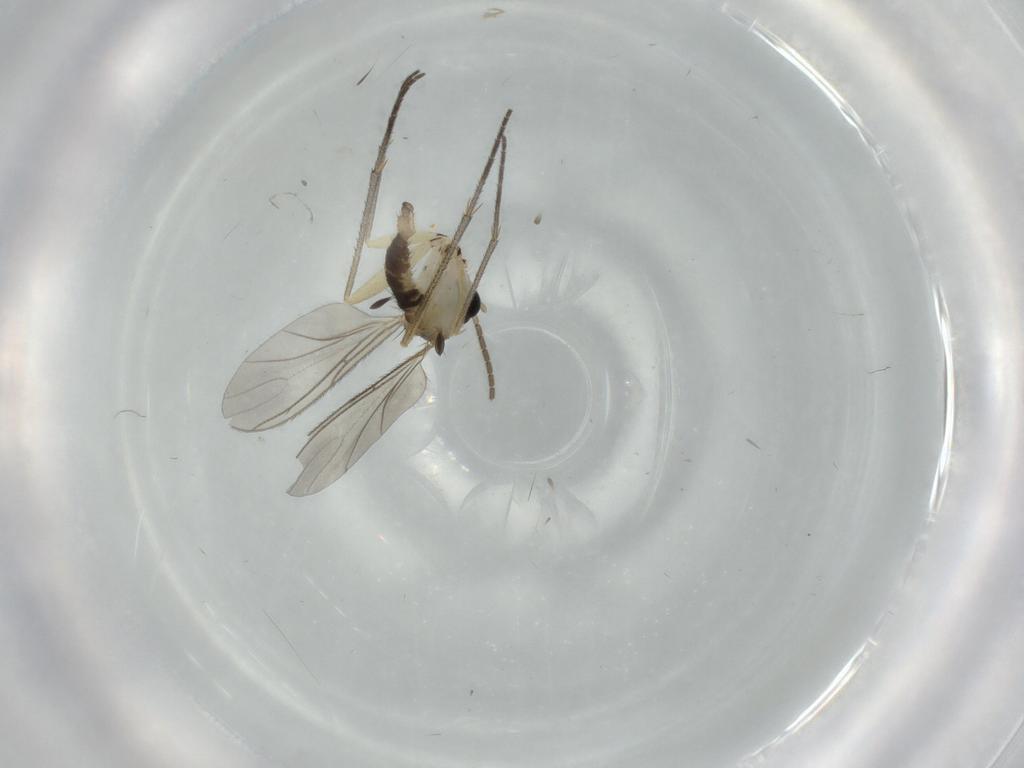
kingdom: Animalia
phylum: Arthropoda
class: Insecta
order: Diptera
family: Sciaridae
